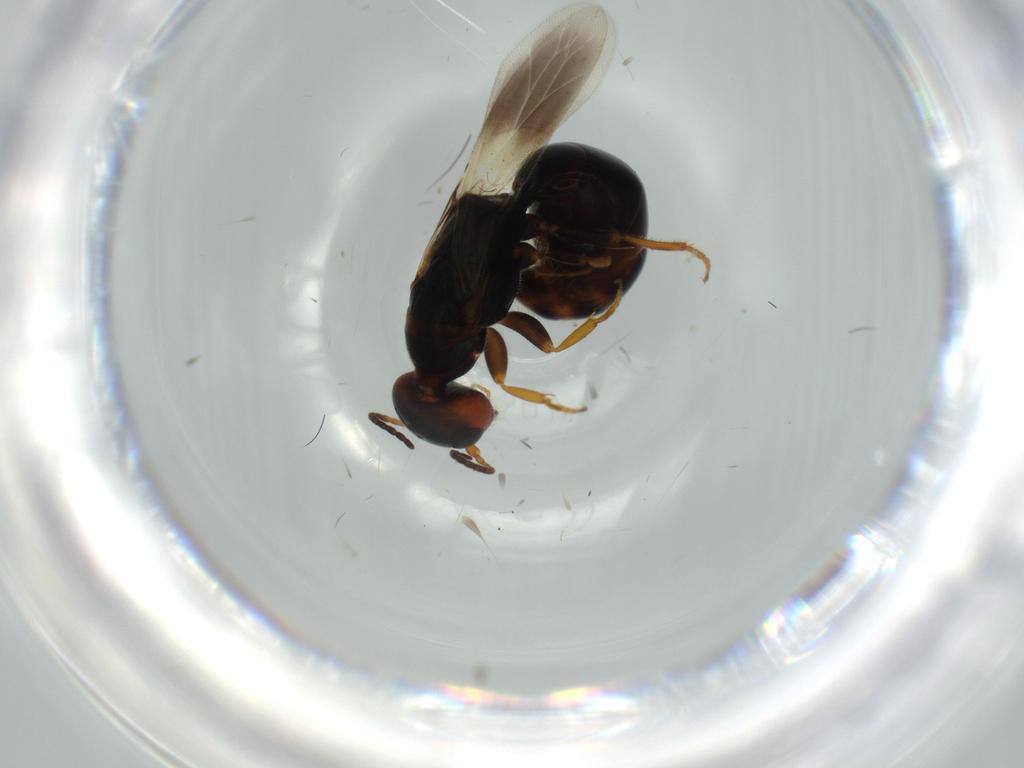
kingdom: Animalia
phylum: Arthropoda
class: Insecta
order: Hymenoptera
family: Bethylidae
